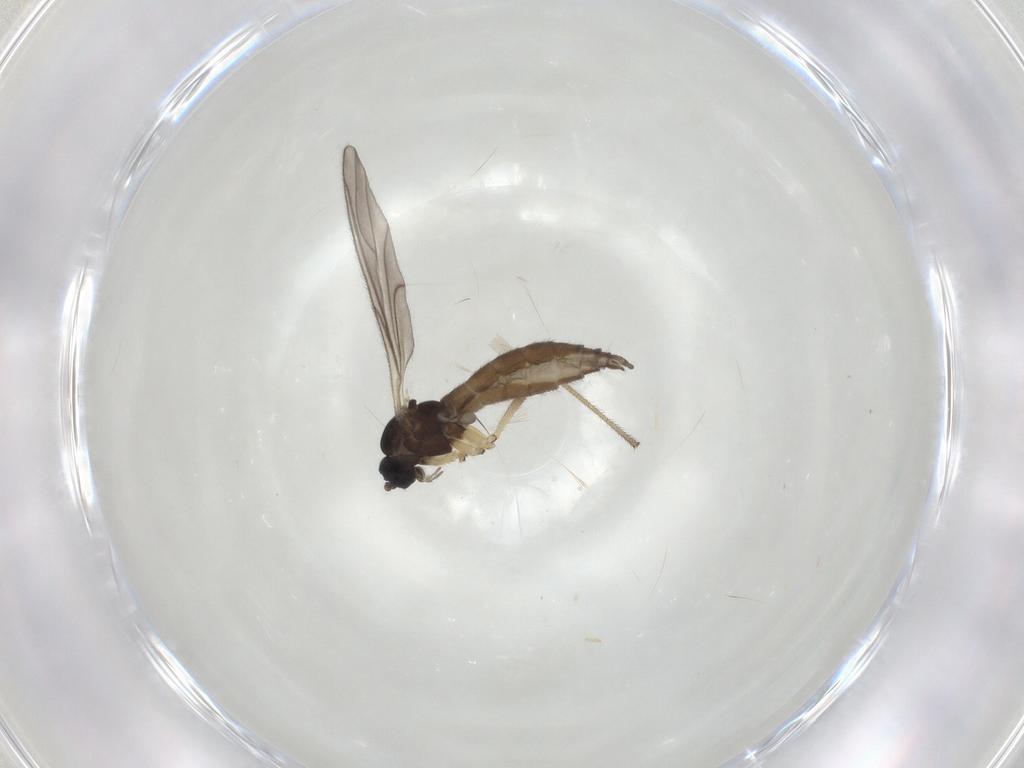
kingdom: Animalia
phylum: Arthropoda
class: Insecta
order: Diptera
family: Sciaridae
